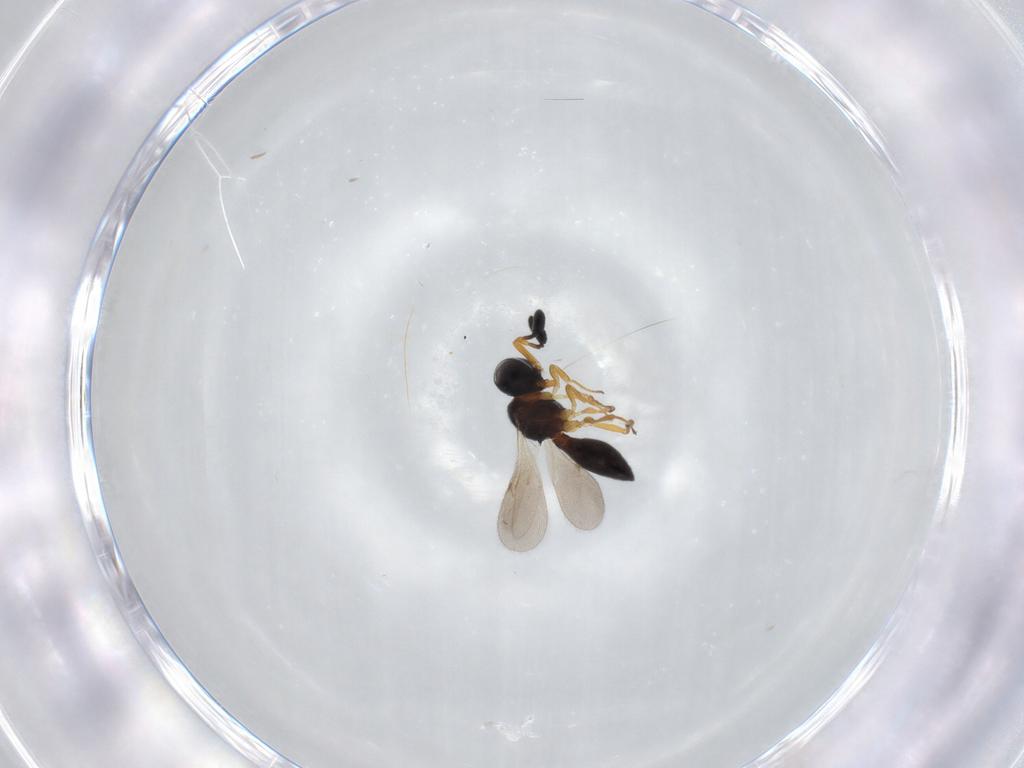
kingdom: Animalia
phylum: Arthropoda
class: Insecta
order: Hymenoptera
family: Scelionidae
